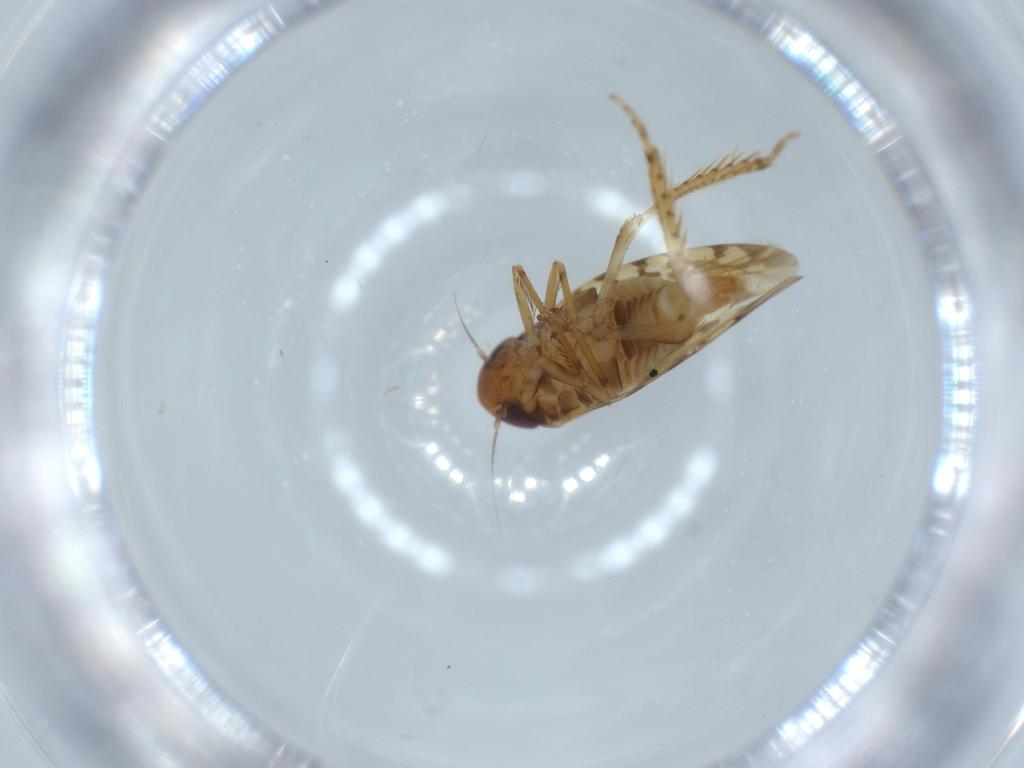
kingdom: Animalia
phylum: Arthropoda
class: Insecta
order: Hemiptera
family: Cicadellidae
